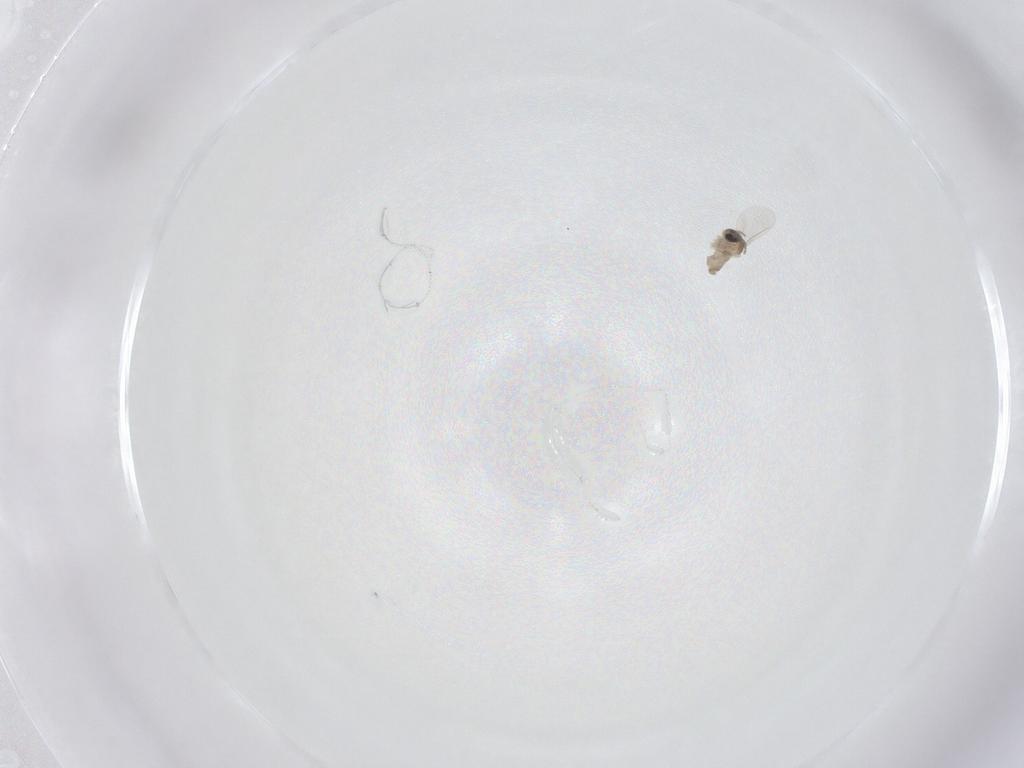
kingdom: Animalia
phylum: Arthropoda
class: Insecta
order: Diptera
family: Cecidomyiidae
